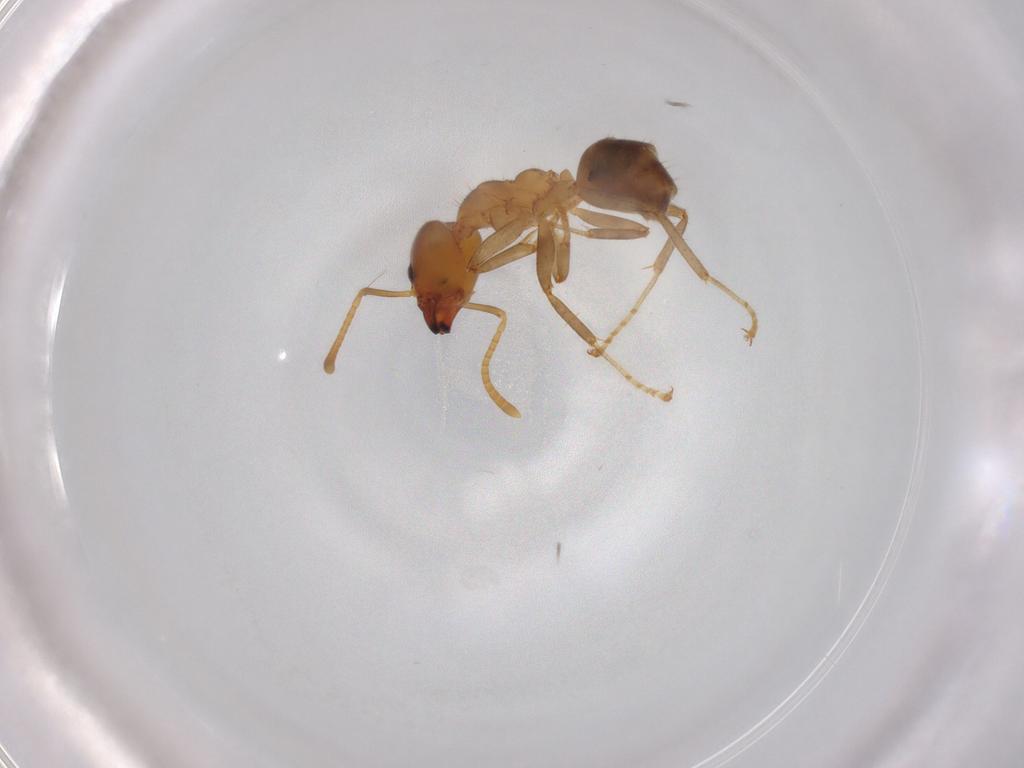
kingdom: Animalia
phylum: Arthropoda
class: Insecta
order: Hymenoptera
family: Formicidae
